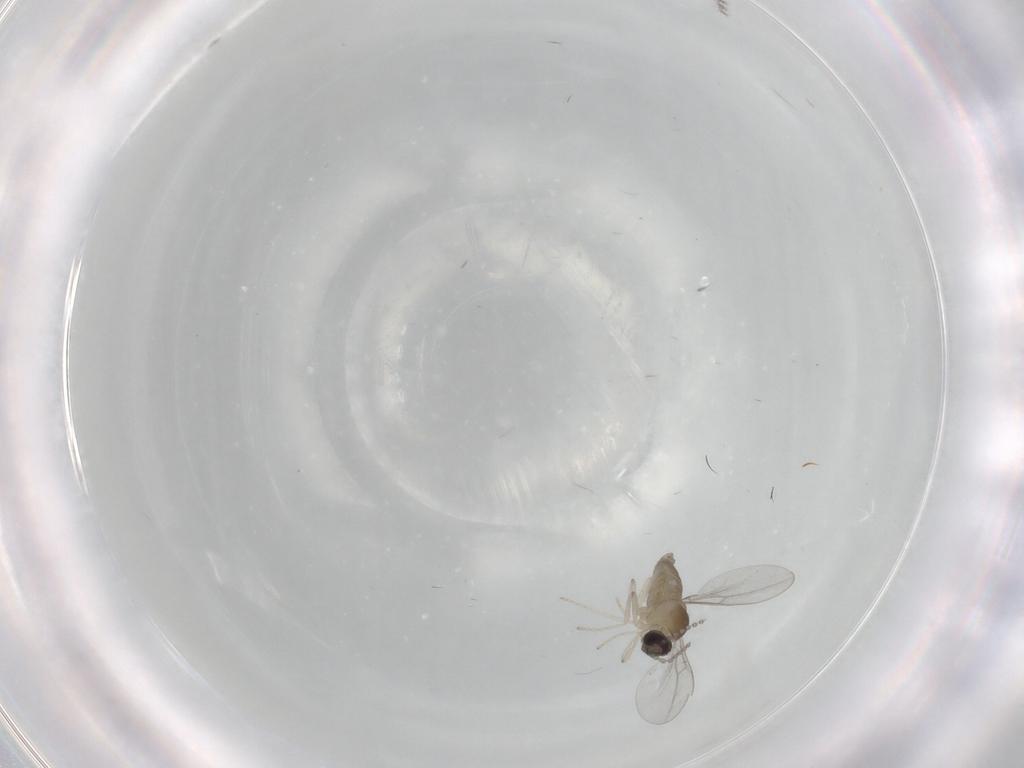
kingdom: Animalia
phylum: Arthropoda
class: Insecta
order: Diptera
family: Cecidomyiidae
